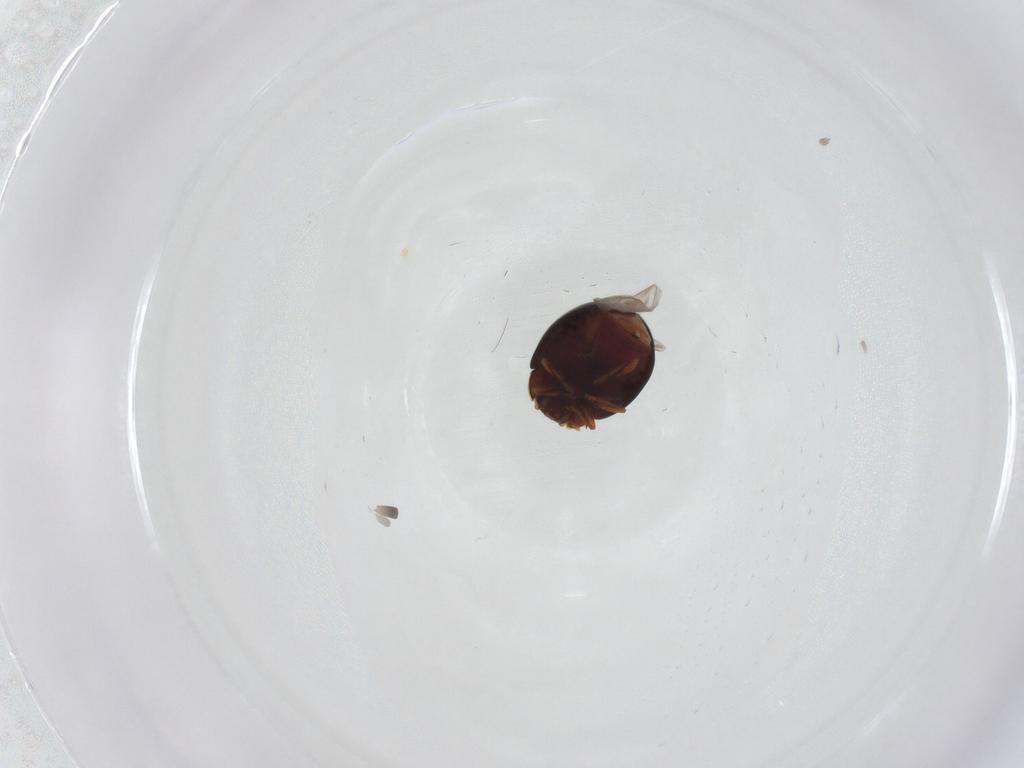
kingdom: Animalia
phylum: Arthropoda
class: Insecta
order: Coleoptera
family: Coccinellidae
